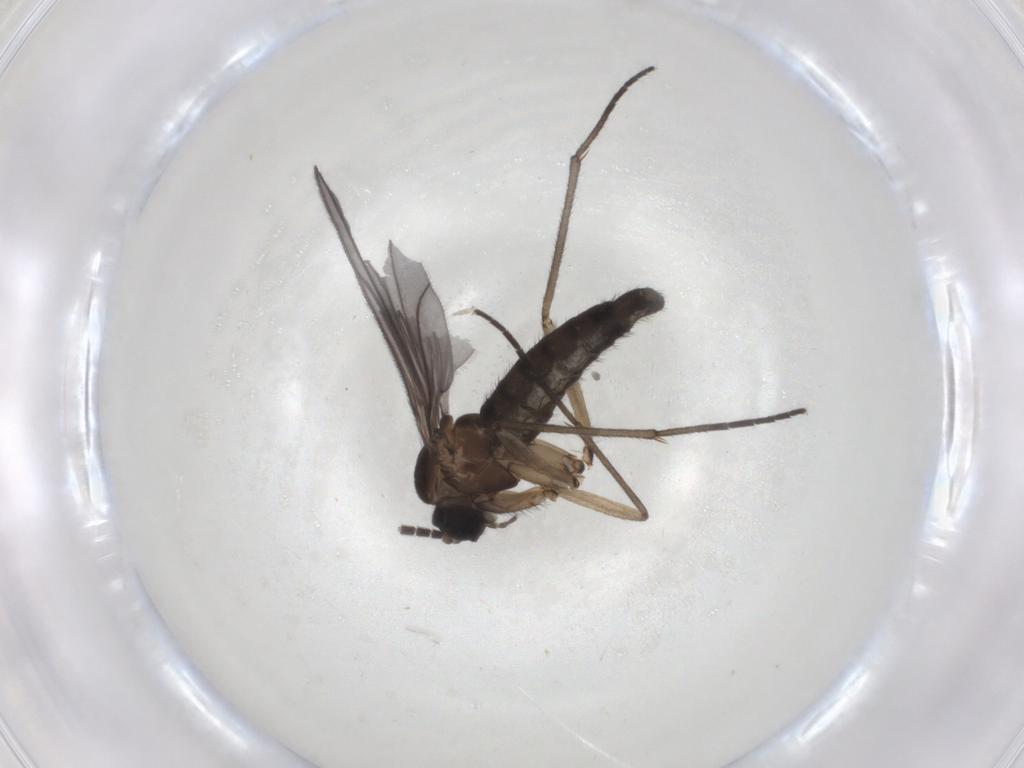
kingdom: Animalia
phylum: Arthropoda
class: Insecta
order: Diptera
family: Sciaridae
